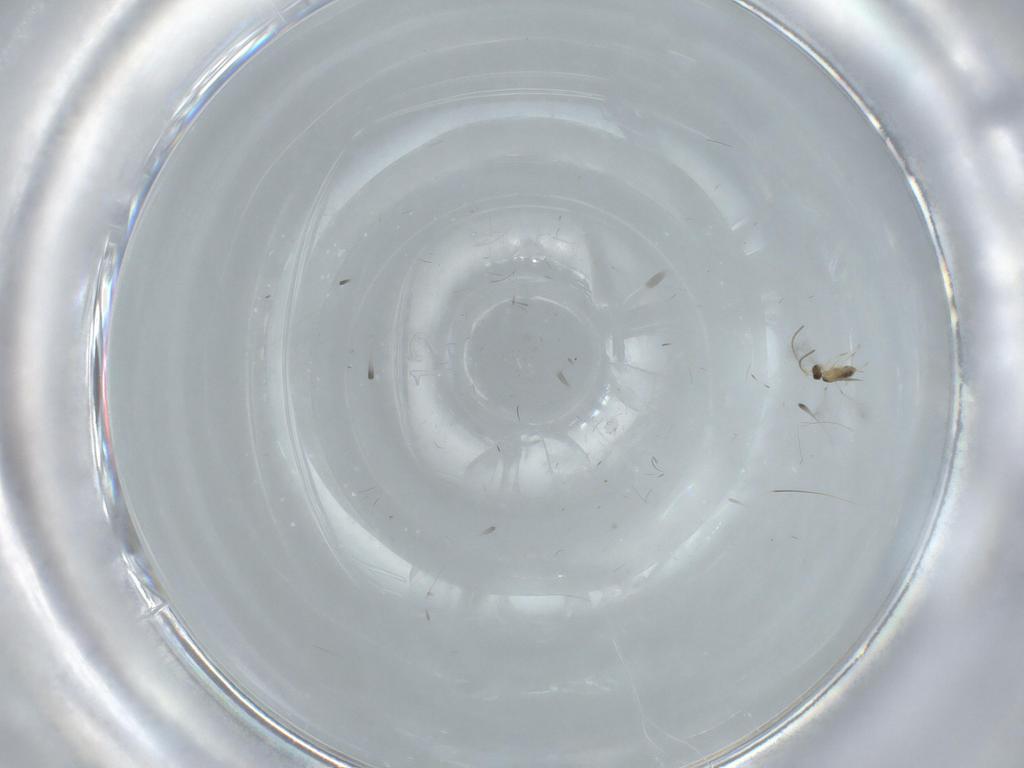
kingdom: Animalia
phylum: Arthropoda
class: Insecta
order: Hymenoptera
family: Mymaridae
